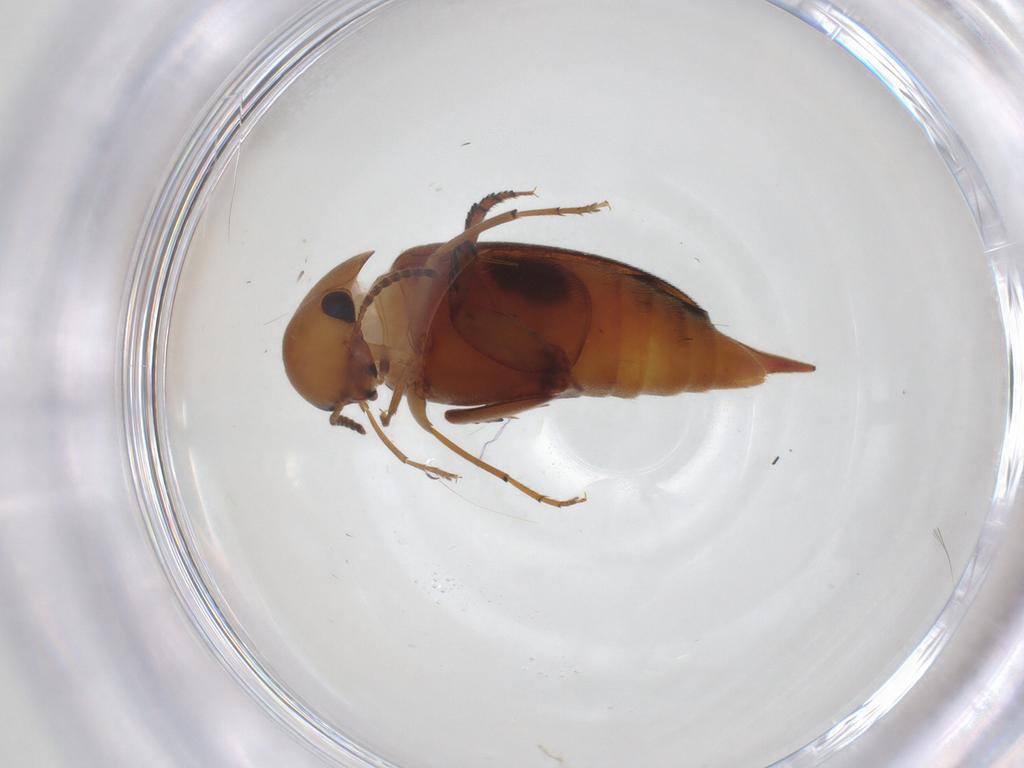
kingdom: Animalia
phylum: Arthropoda
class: Insecta
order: Coleoptera
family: Mordellidae
